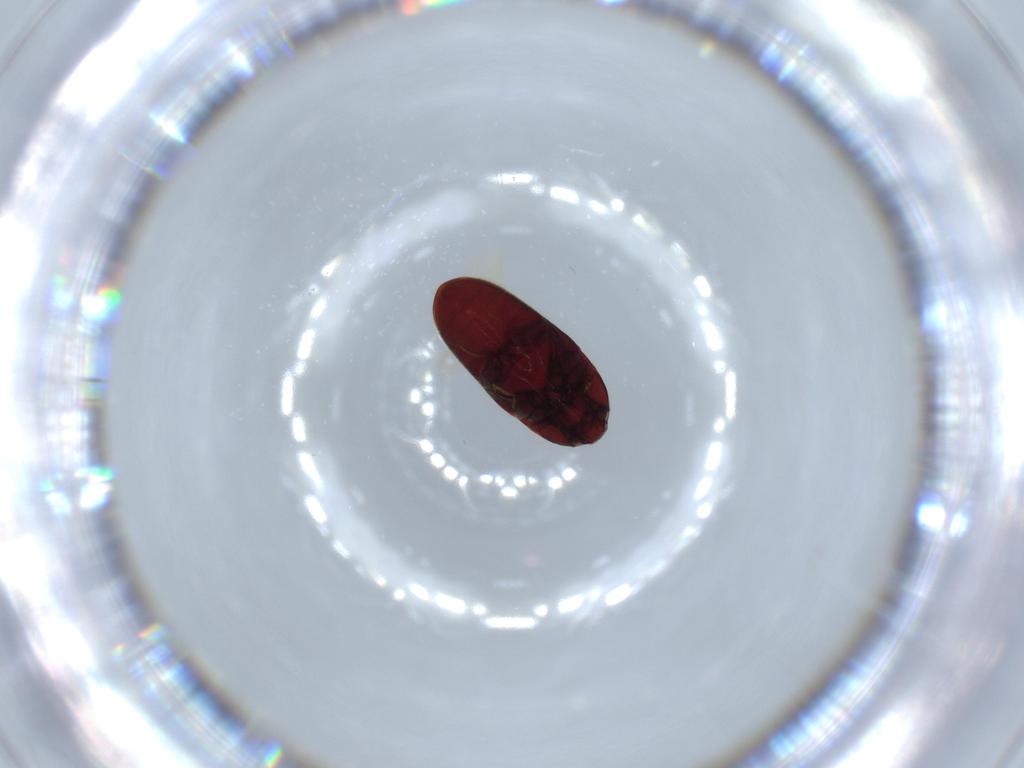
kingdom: Animalia
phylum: Arthropoda
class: Insecta
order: Coleoptera
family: Throscidae
